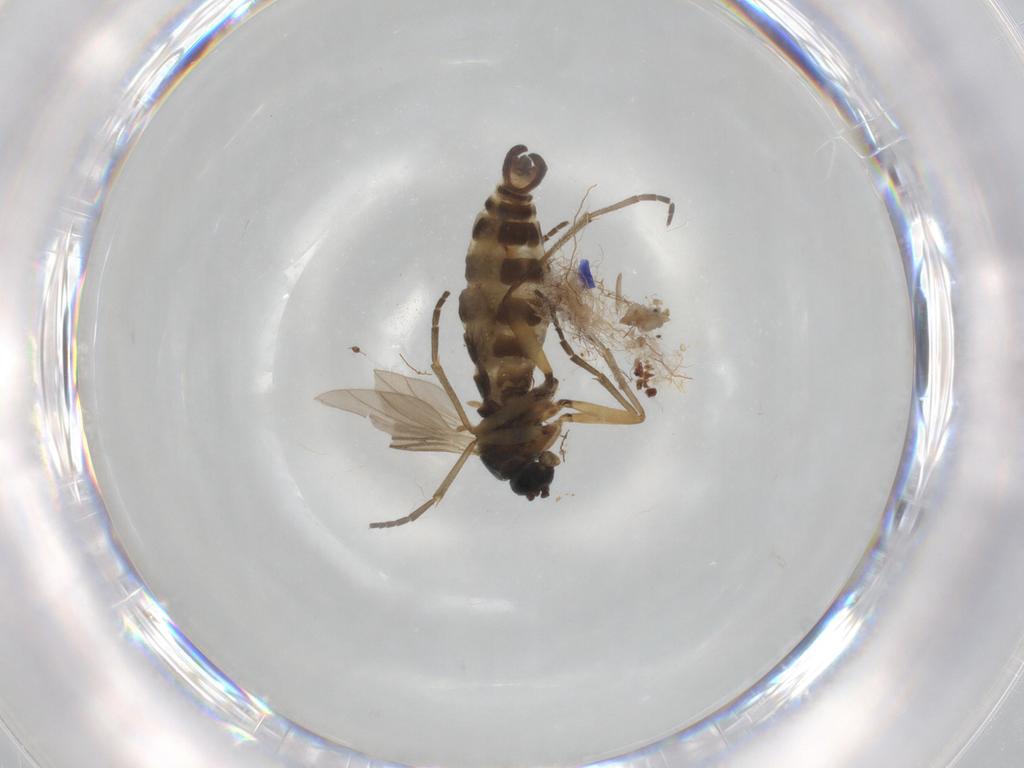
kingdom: Animalia
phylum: Arthropoda
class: Insecta
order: Diptera
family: Sciaridae
